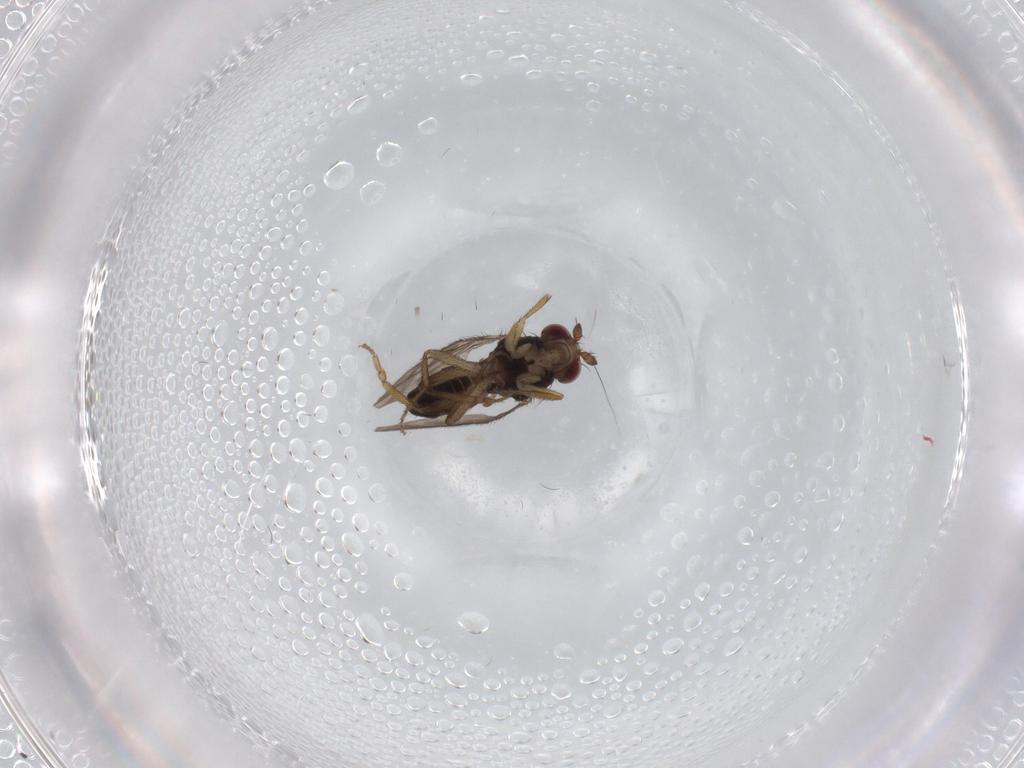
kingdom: Animalia
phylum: Arthropoda
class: Insecta
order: Diptera
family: Sphaeroceridae
